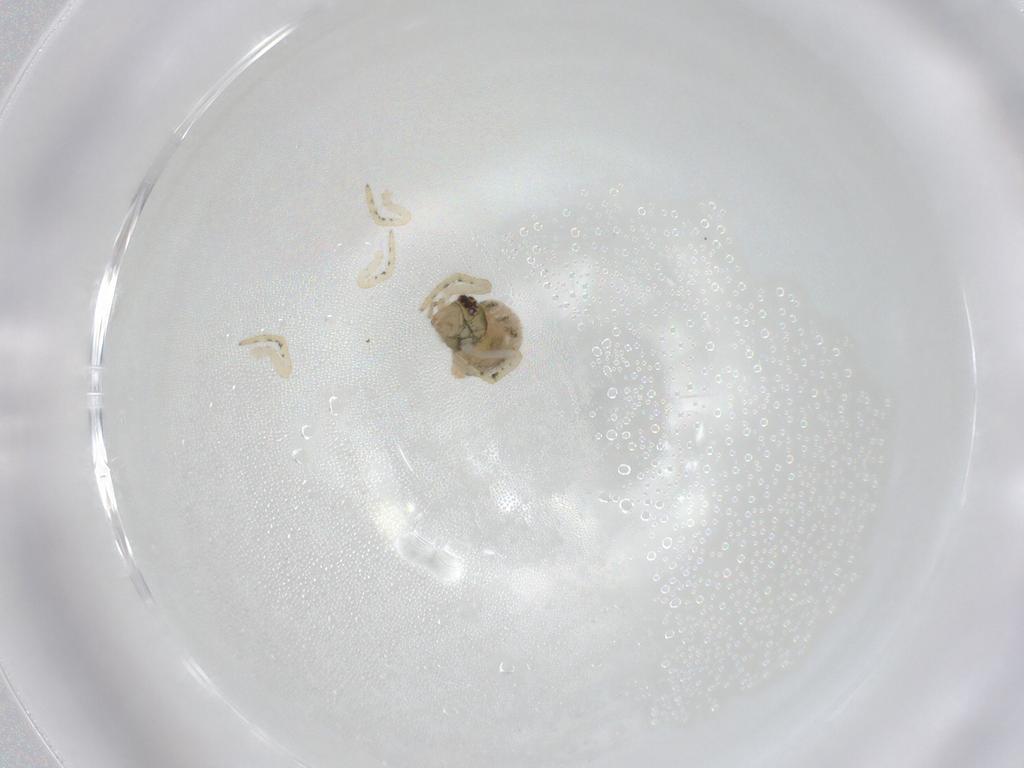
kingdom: Animalia
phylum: Arthropoda
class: Arachnida
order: Araneae
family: Theridiidae
